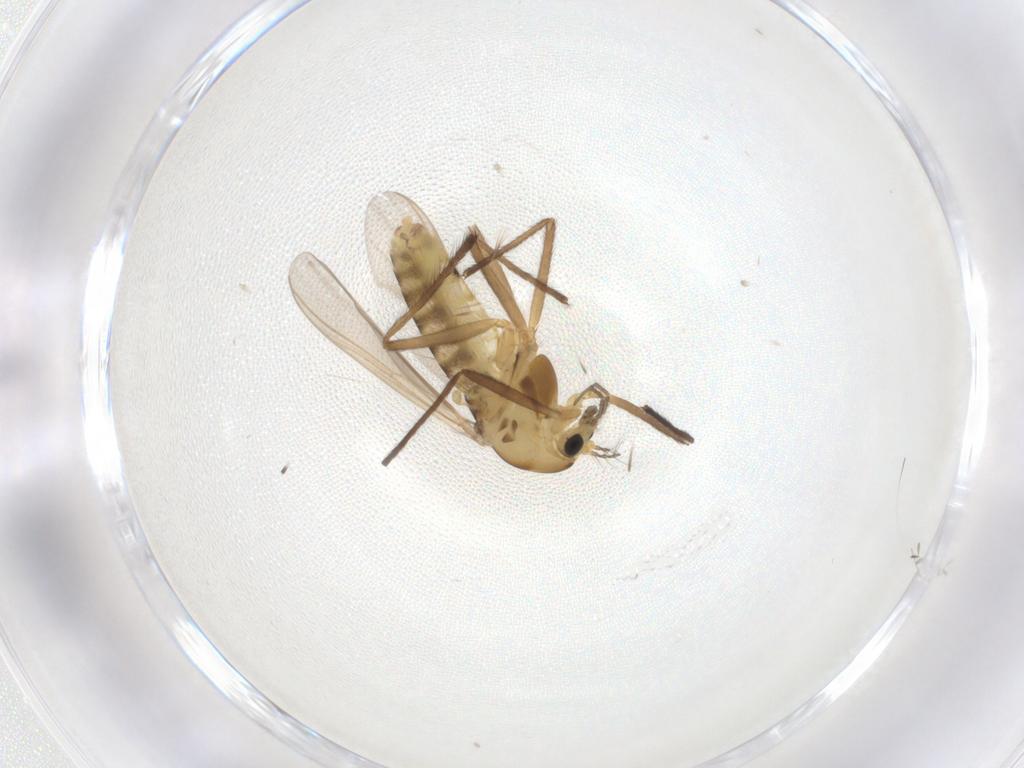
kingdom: Animalia
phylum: Arthropoda
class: Insecta
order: Diptera
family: Chironomidae
